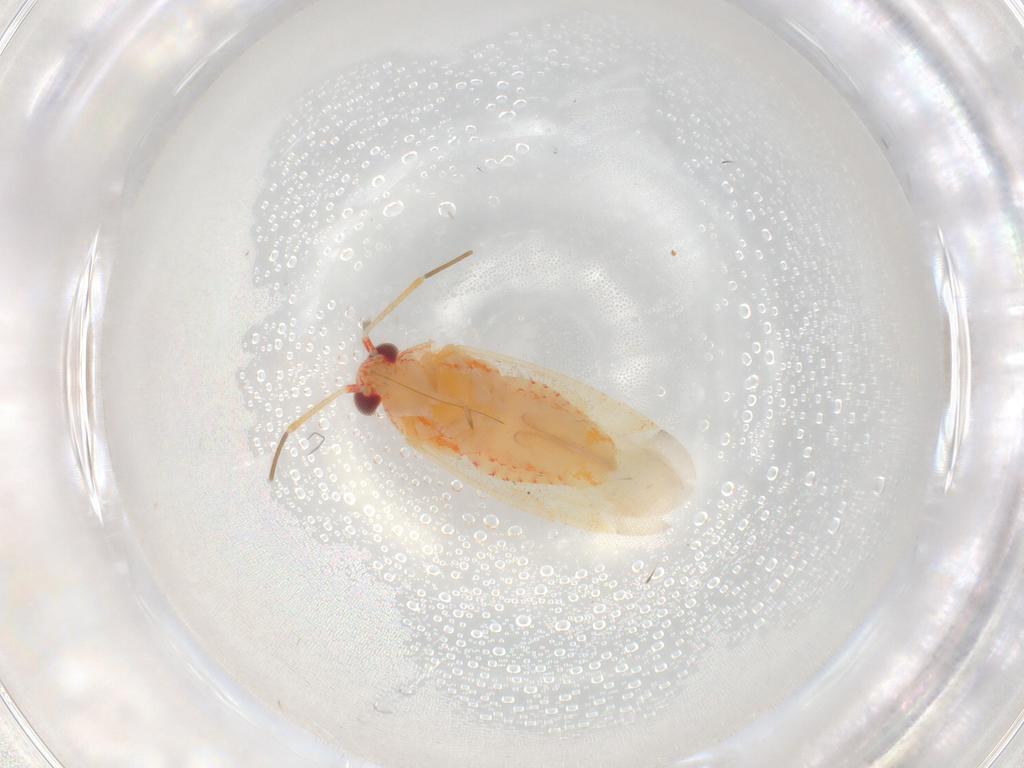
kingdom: Animalia
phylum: Arthropoda
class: Insecta
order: Hemiptera
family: Miridae
